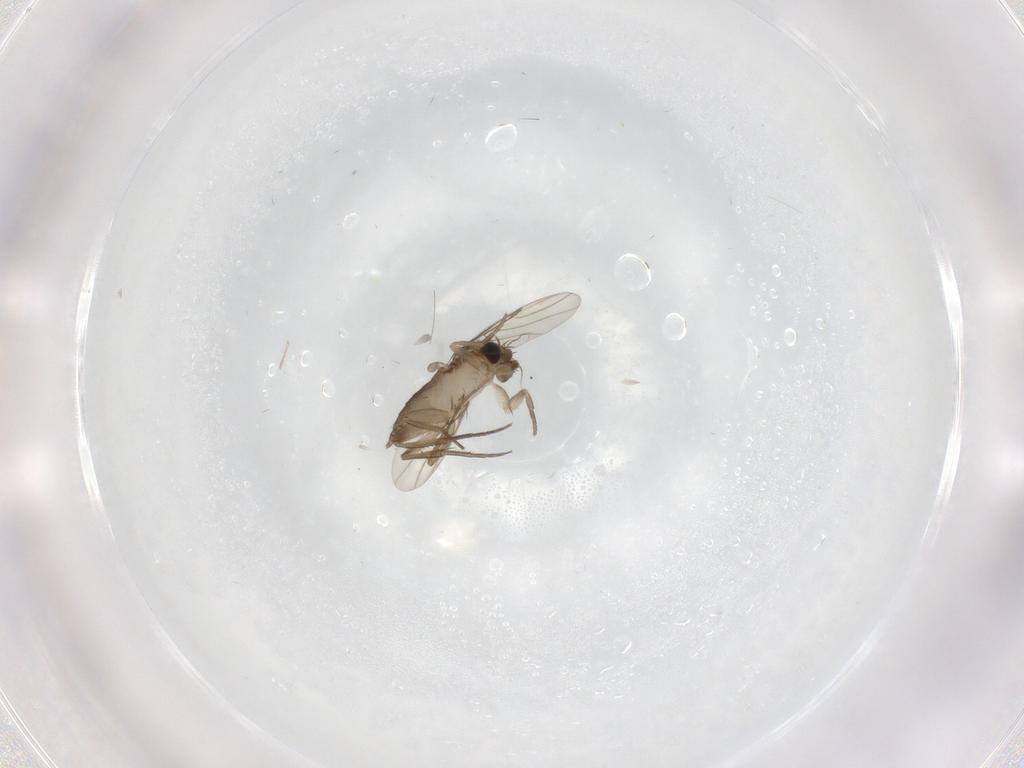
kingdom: Animalia
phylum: Arthropoda
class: Insecta
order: Diptera
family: Chironomidae
